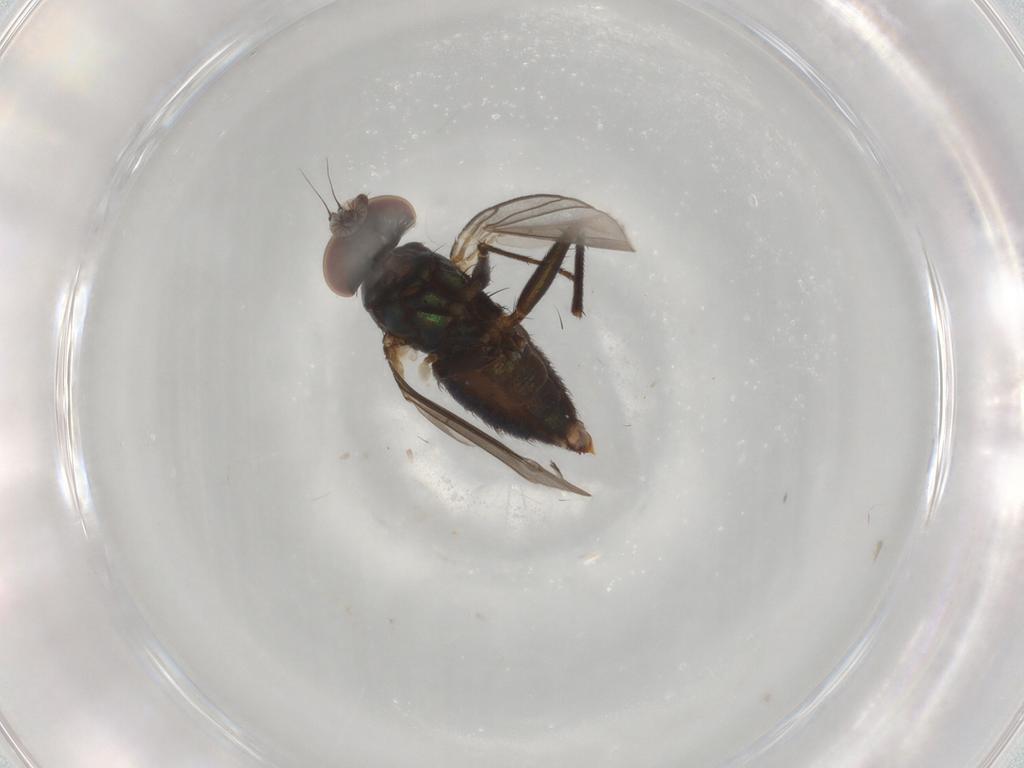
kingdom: Animalia
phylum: Arthropoda
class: Insecta
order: Diptera
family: Dolichopodidae
